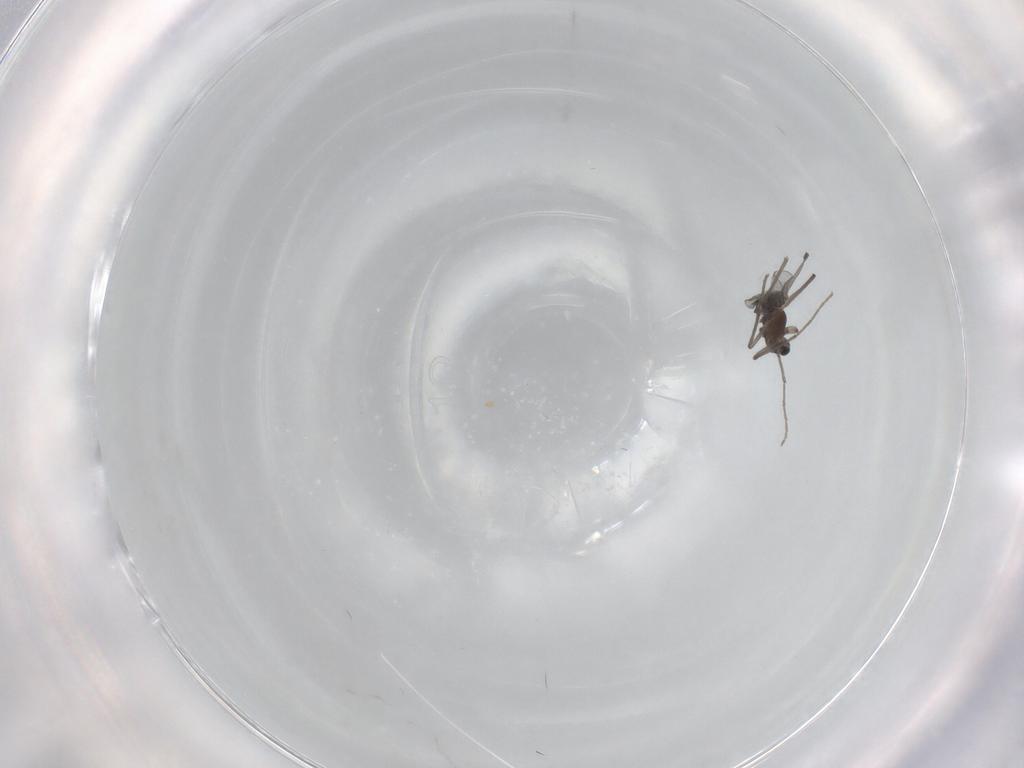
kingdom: Animalia
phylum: Arthropoda
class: Insecta
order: Diptera
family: Chironomidae
